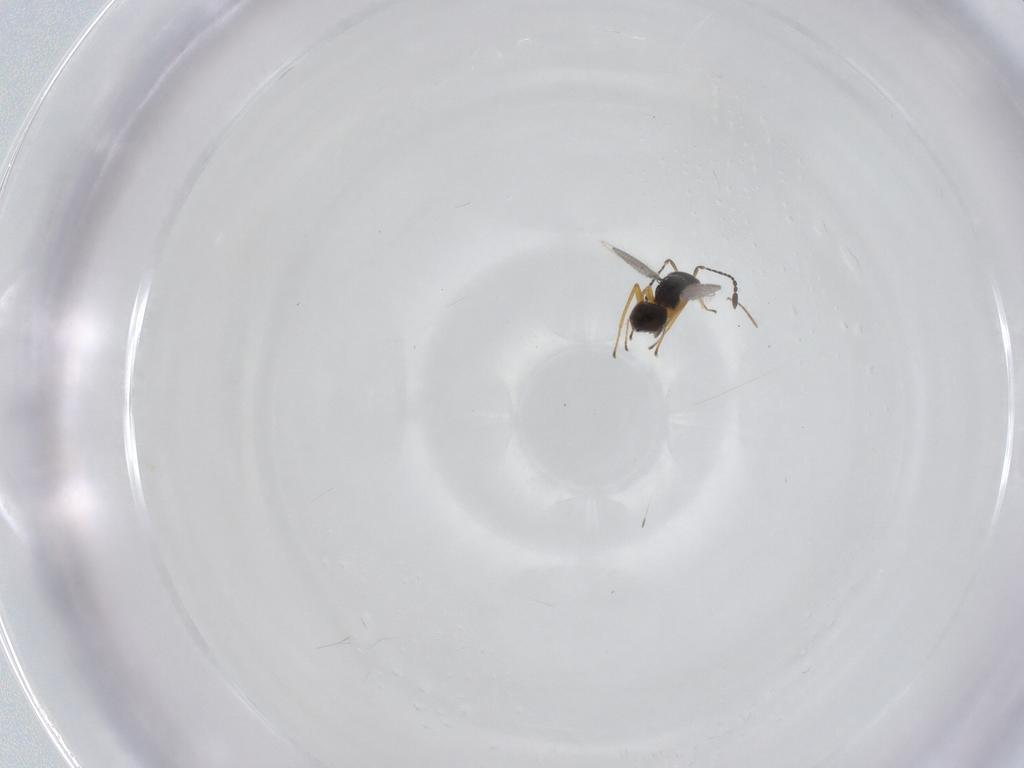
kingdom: Animalia
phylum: Arthropoda
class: Insecta
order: Hymenoptera
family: Mymaridae
